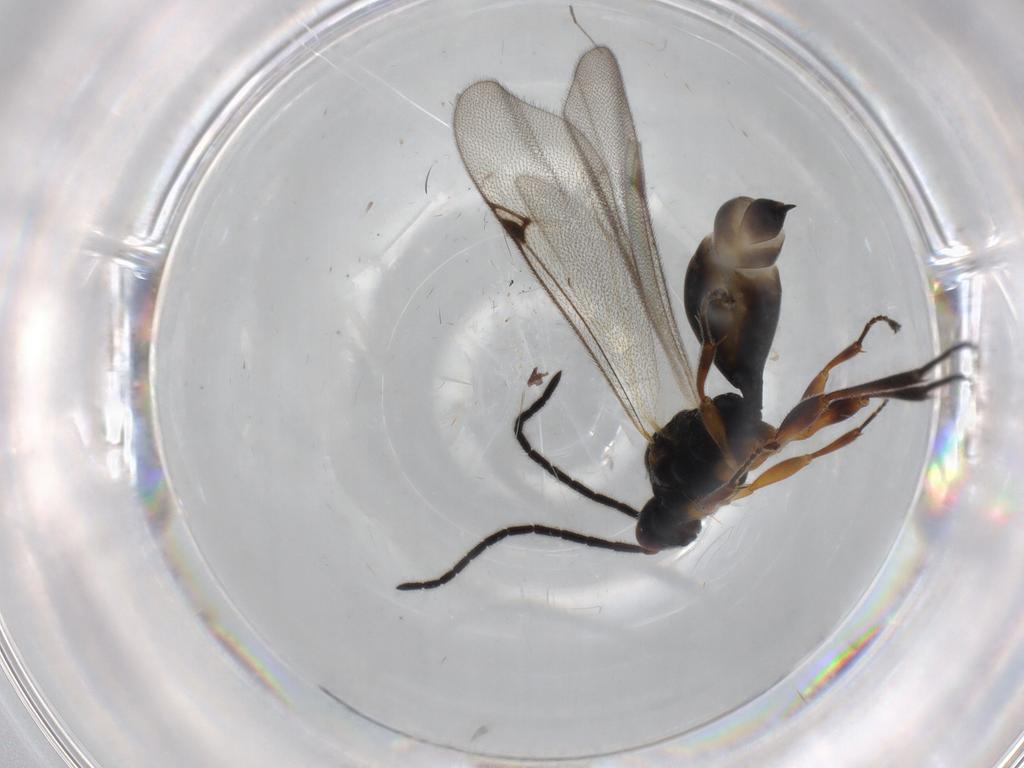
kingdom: Animalia
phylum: Arthropoda
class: Insecta
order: Hymenoptera
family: Proctotrupidae
